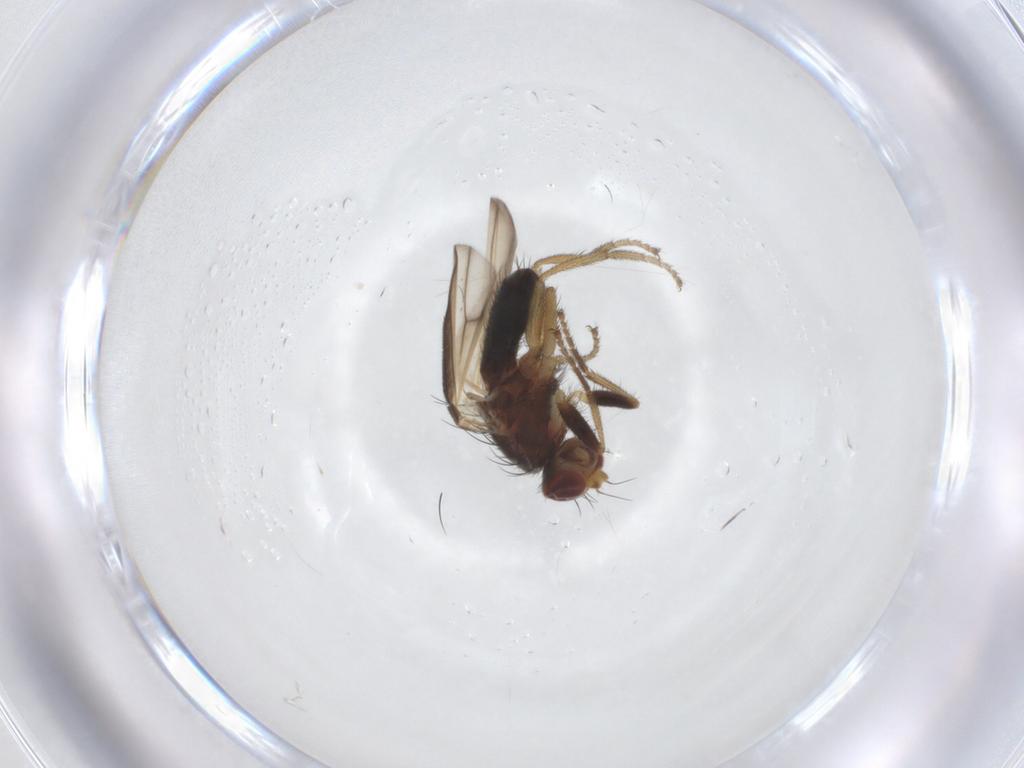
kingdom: Animalia
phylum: Arthropoda
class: Insecta
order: Diptera
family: Heleomyzidae
